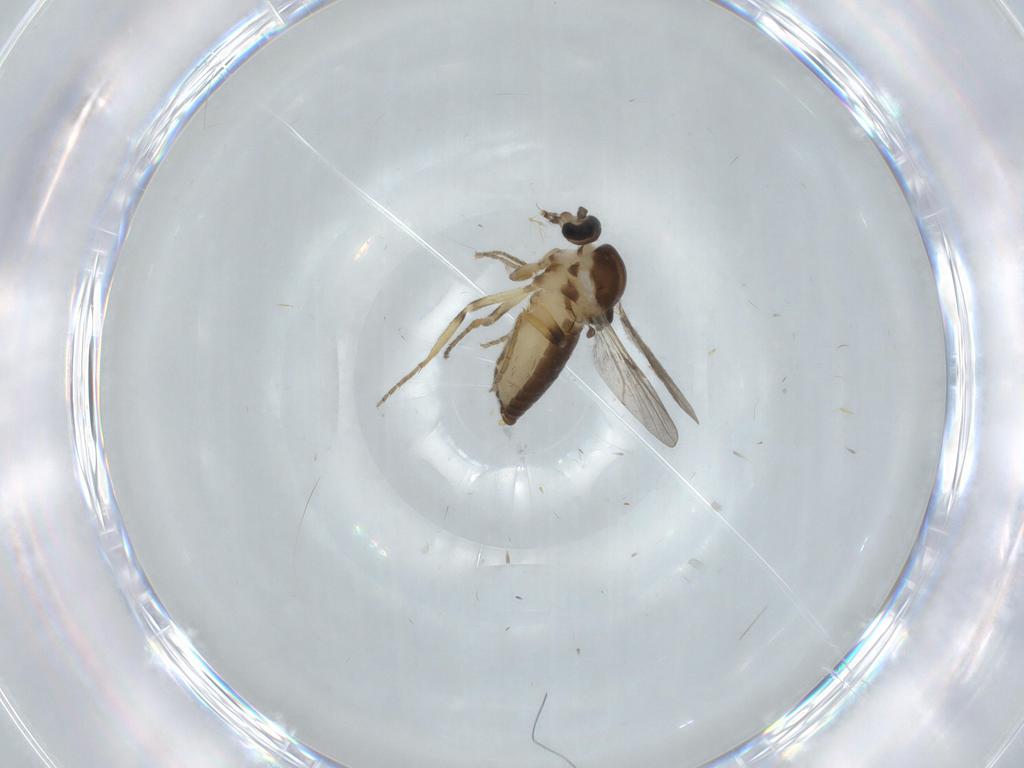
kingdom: Animalia
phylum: Arthropoda
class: Insecta
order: Diptera
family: Ceratopogonidae
